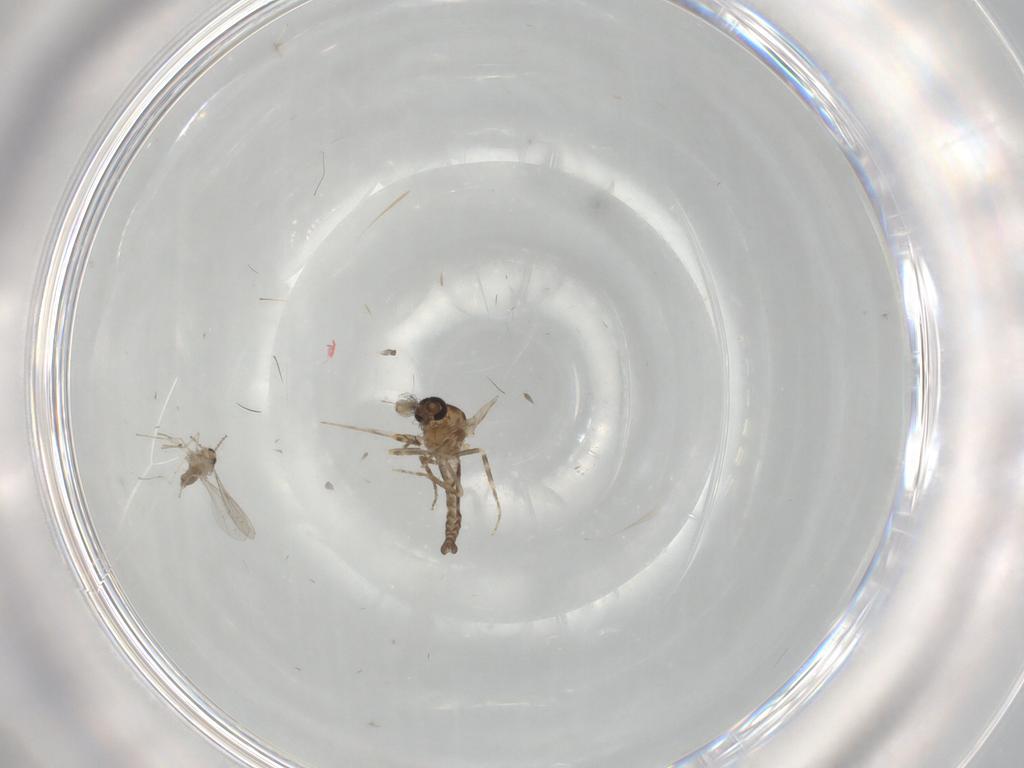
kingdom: Animalia
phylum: Arthropoda
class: Insecta
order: Diptera
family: Ceratopogonidae
